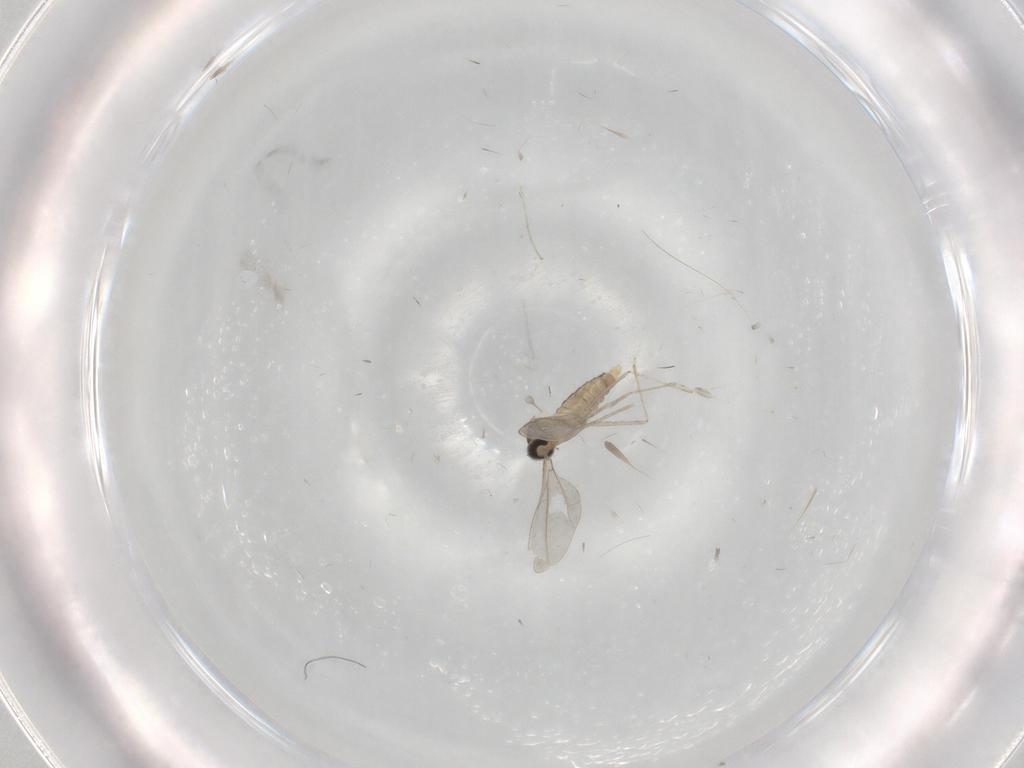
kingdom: Animalia
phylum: Arthropoda
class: Insecta
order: Diptera
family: Cecidomyiidae
